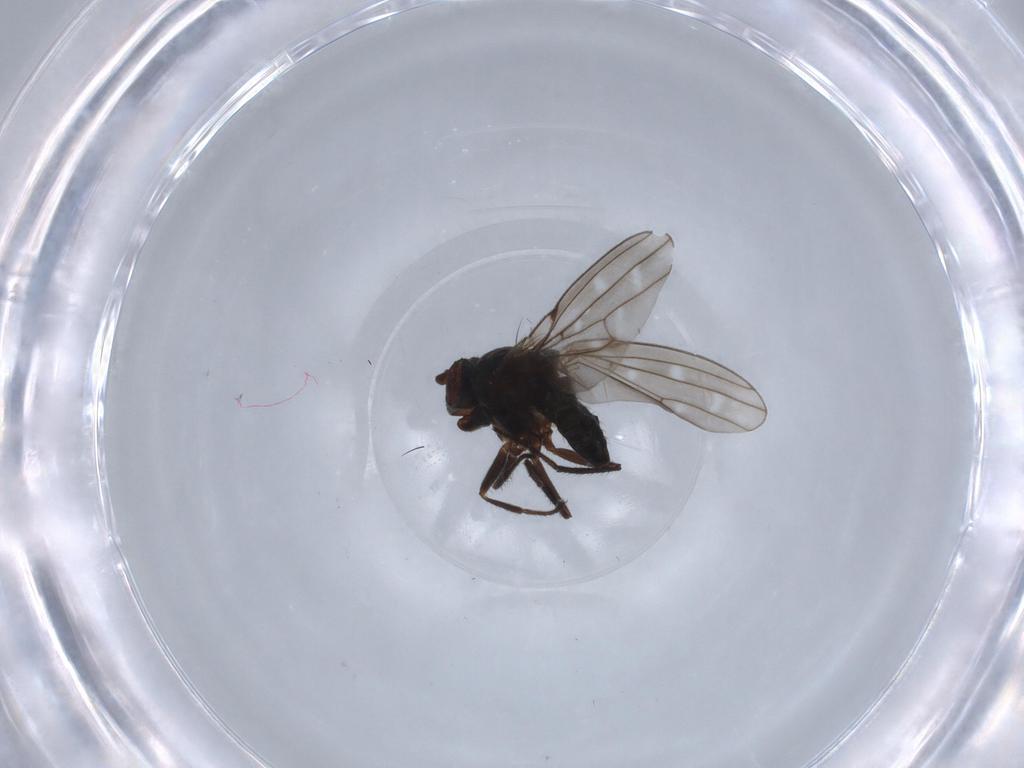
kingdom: Animalia
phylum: Arthropoda
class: Insecta
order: Diptera
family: Ephydridae
